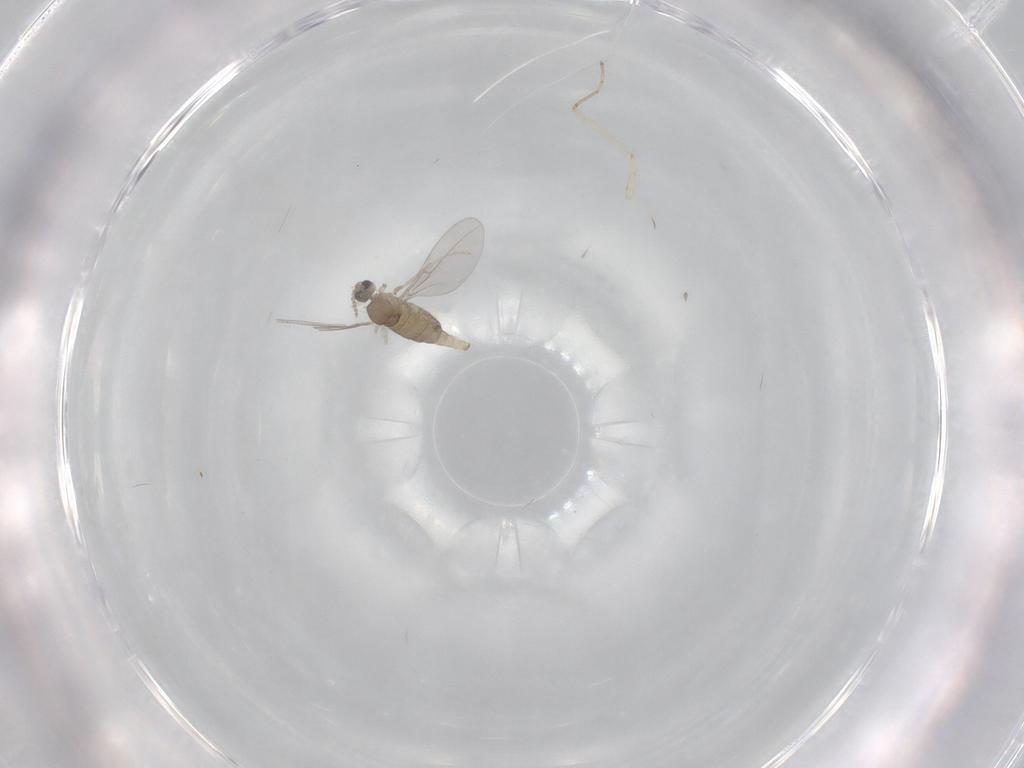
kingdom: Animalia
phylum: Arthropoda
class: Insecta
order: Diptera
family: Cecidomyiidae
